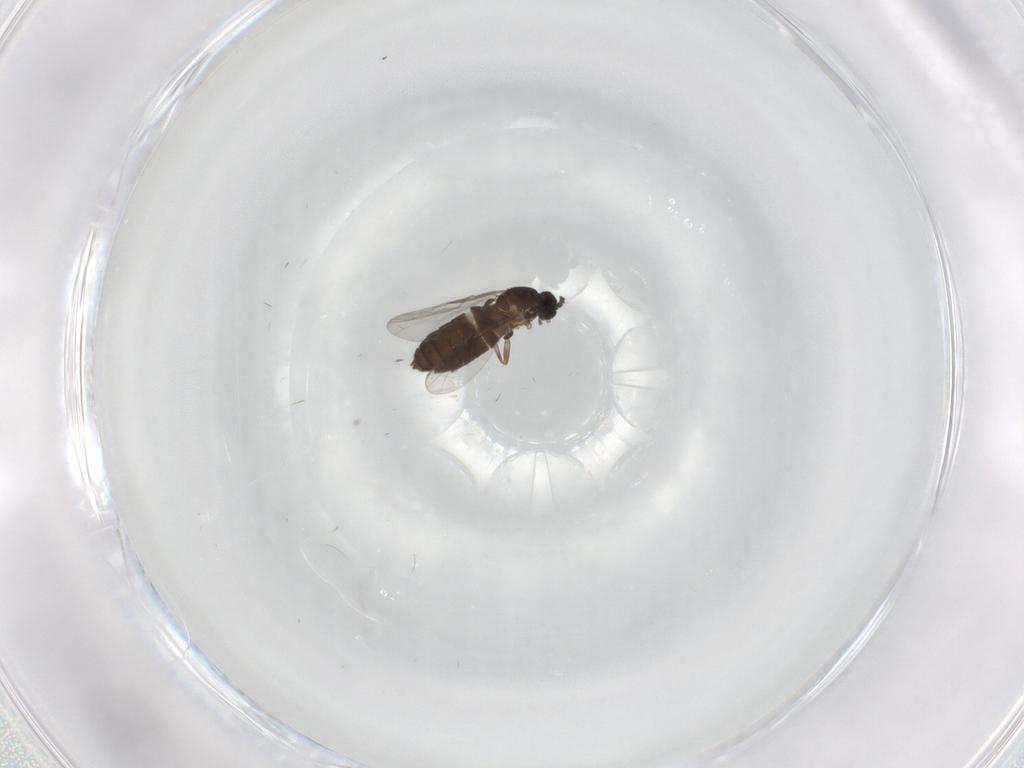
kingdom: Animalia
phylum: Arthropoda
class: Insecta
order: Diptera
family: Scatopsidae
